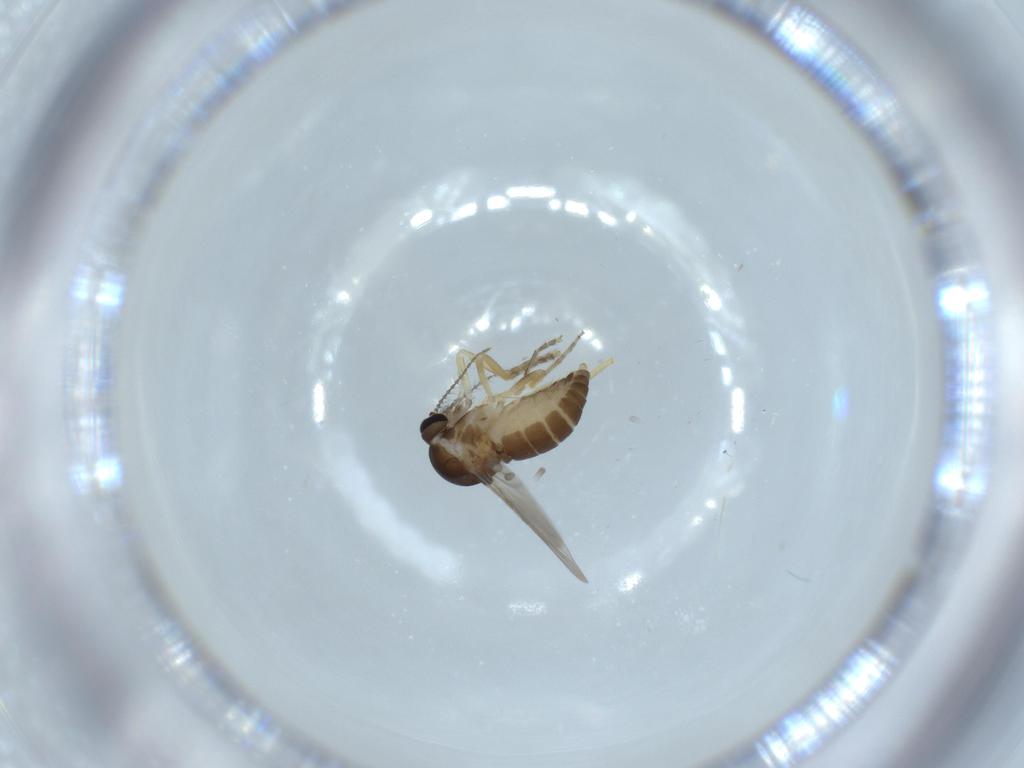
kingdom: Animalia
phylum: Arthropoda
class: Insecta
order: Diptera
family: Ceratopogonidae
